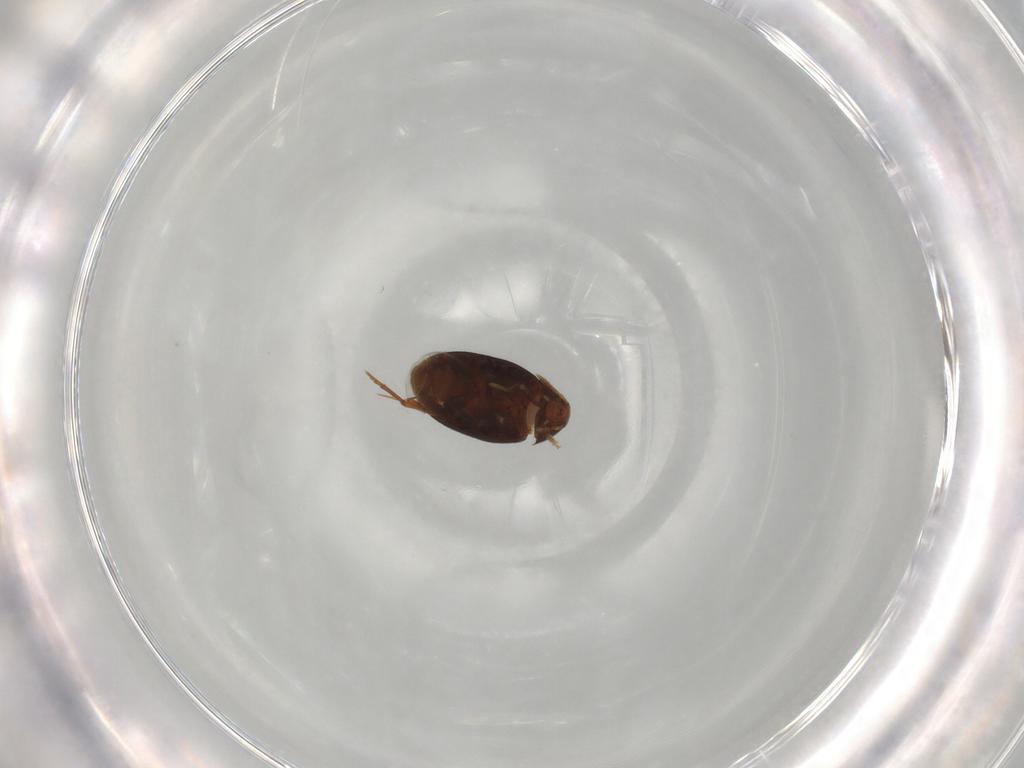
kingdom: Animalia
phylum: Arthropoda
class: Insecta
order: Coleoptera
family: Melandryidae
